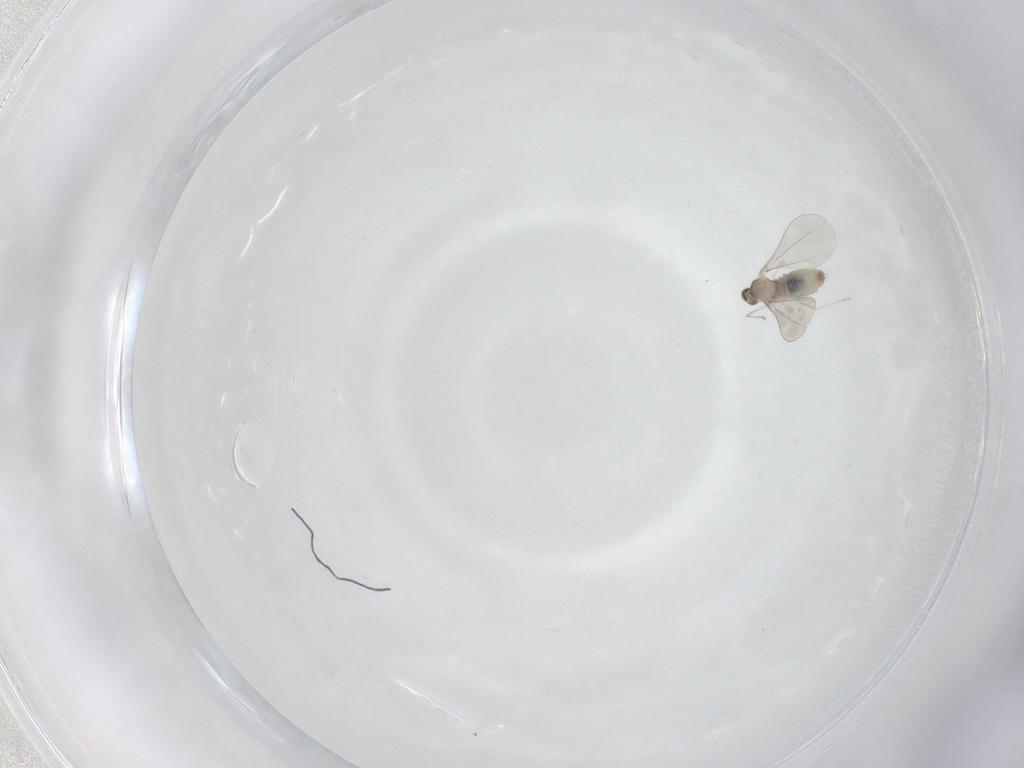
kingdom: Animalia
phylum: Arthropoda
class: Insecta
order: Diptera
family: Cecidomyiidae
